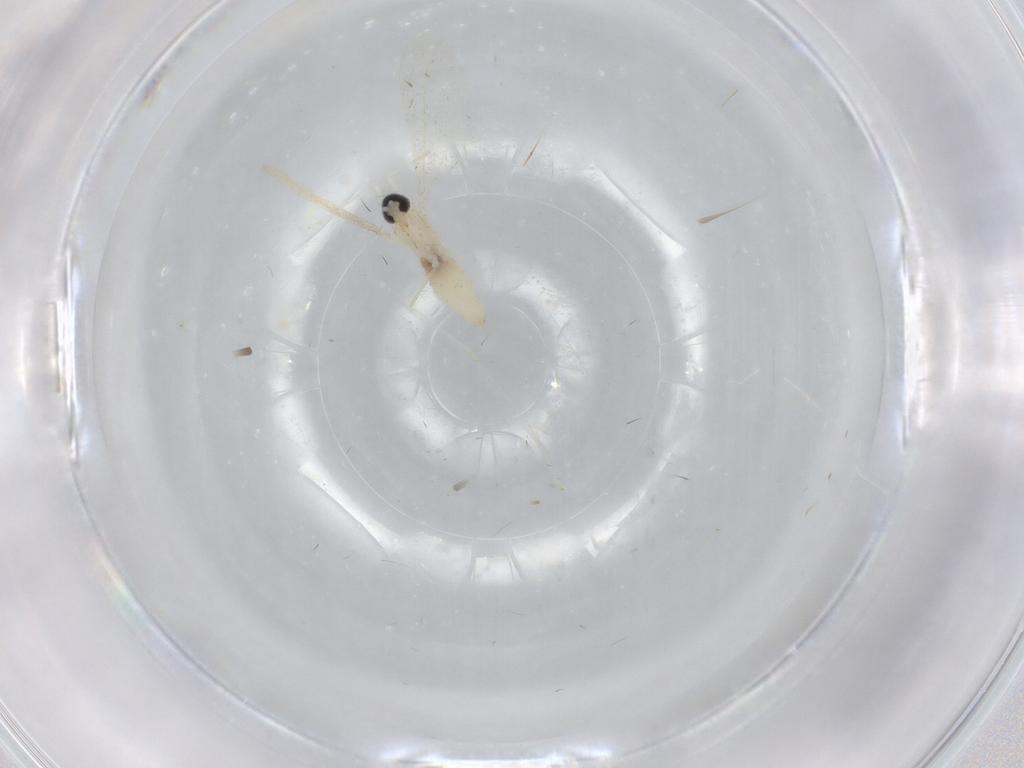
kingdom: Animalia
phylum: Arthropoda
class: Insecta
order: Diptera
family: Cecidomyiidae
